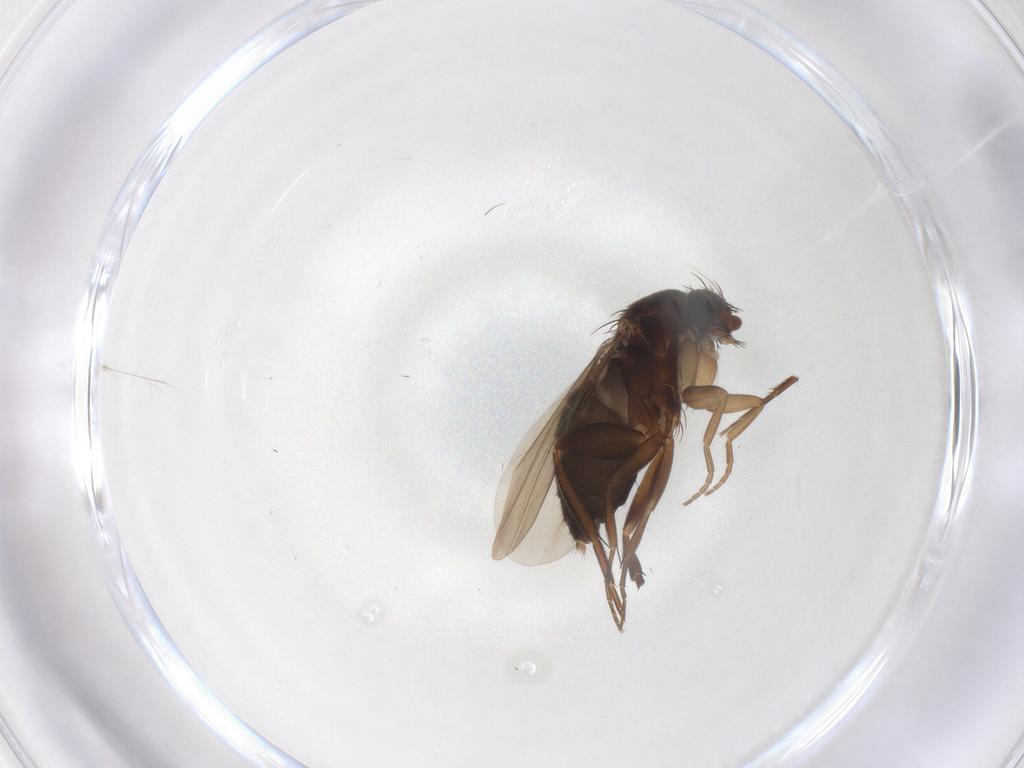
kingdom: Animalia
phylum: Arthropoda
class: Insecta
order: Diptera
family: Phoridae
